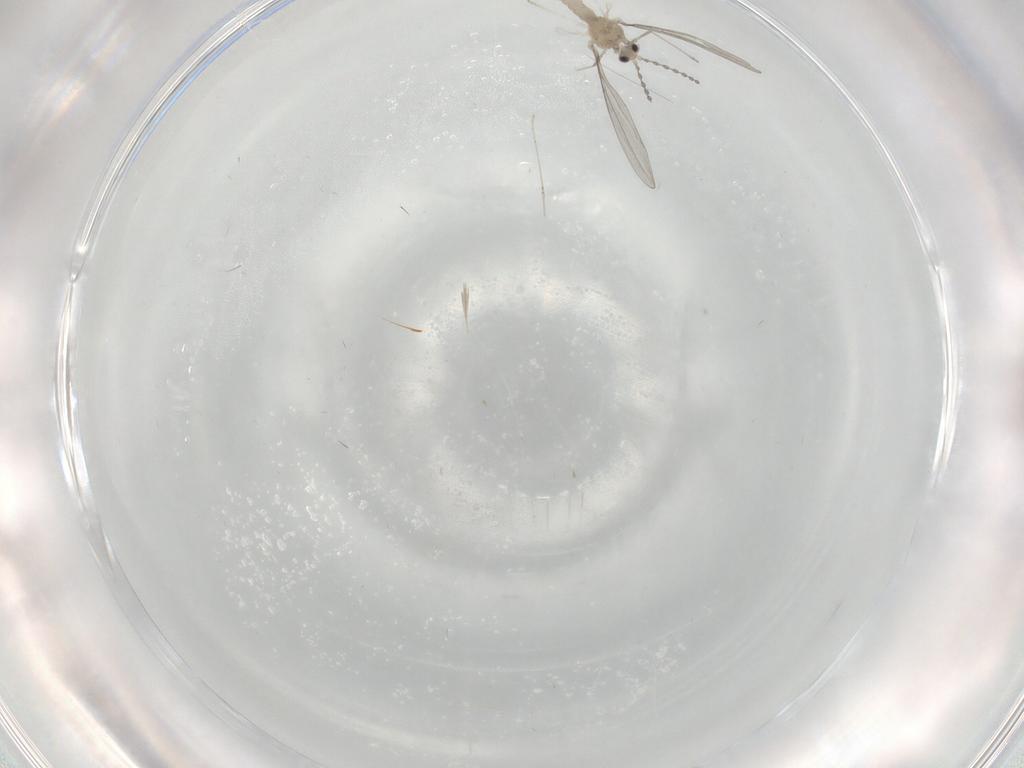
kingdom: Animalia
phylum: Arthropoda
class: Insecta
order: Diptera
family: Cecidomyiidae
